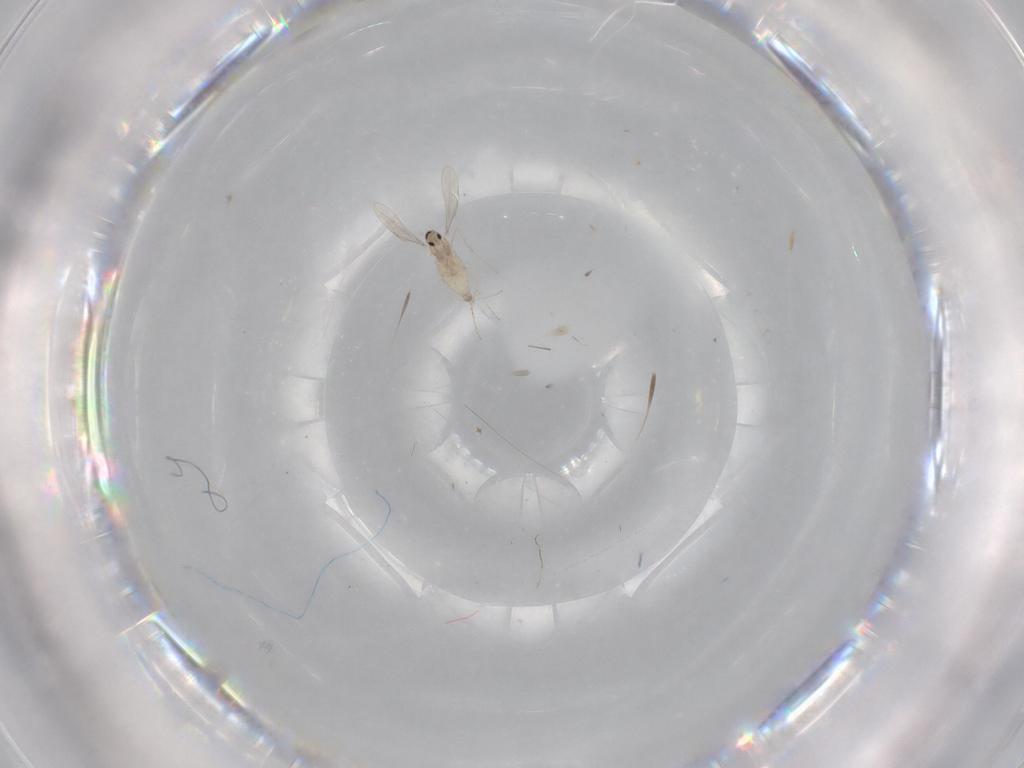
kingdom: Animalia
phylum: Arthropoda
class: Insecta
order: Diptera
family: Cecidomyiidae
